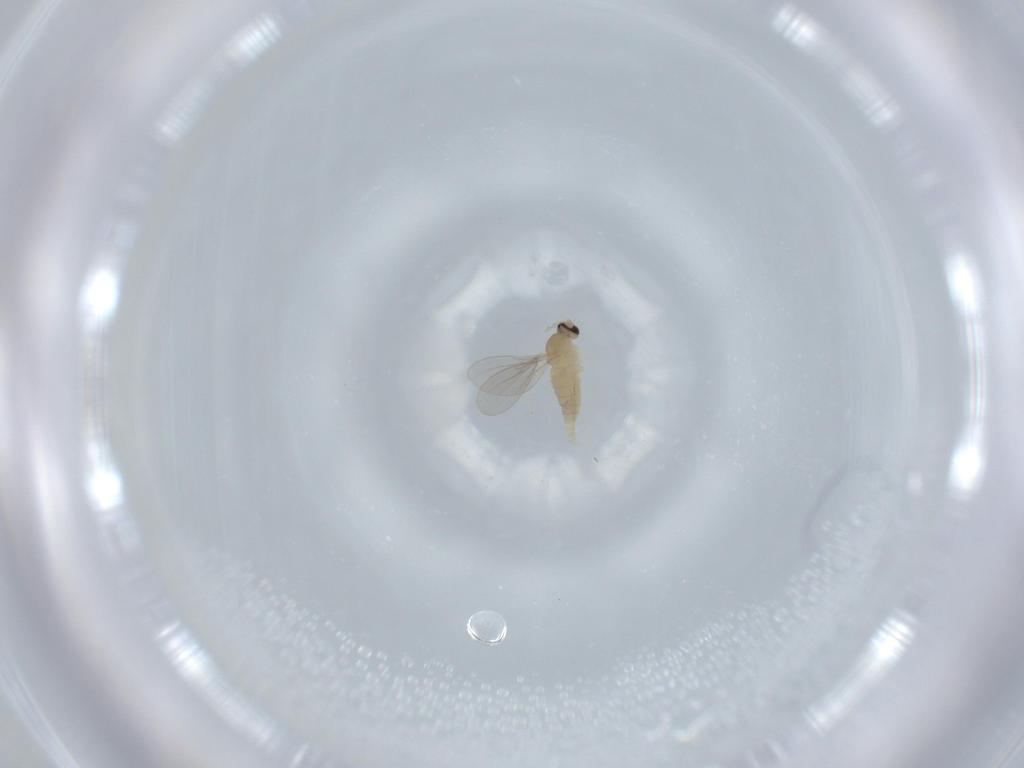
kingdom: Animalia
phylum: Arthropoda
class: Insecta
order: Diptera
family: Cecidomyiidae
